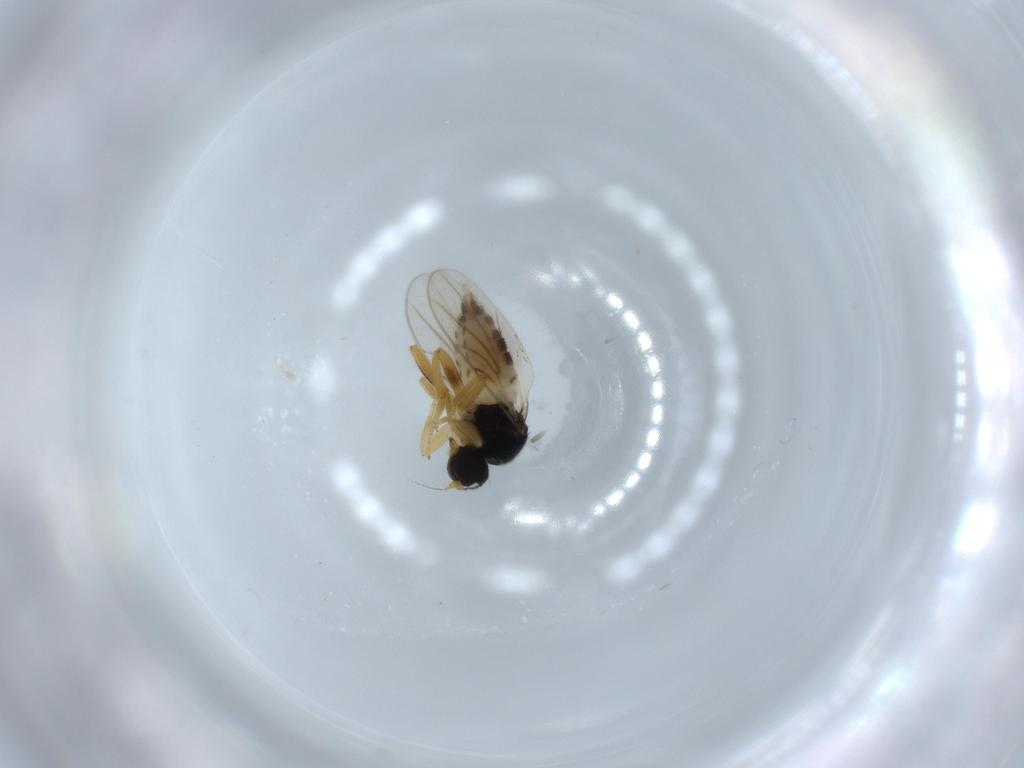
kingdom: Animalia
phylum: Arthropoda
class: Insecta
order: Diptera
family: Hybotidae
